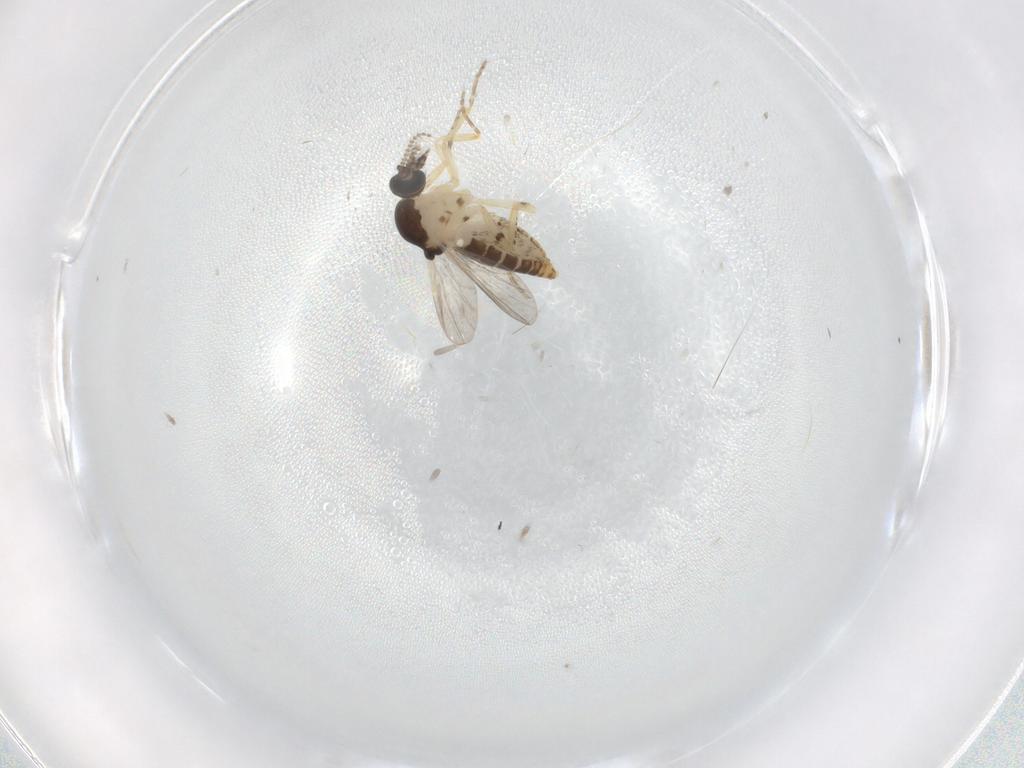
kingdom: Animalia
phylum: Arthropoda
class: Insecta
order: Diptera
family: Ceratopogonidae
